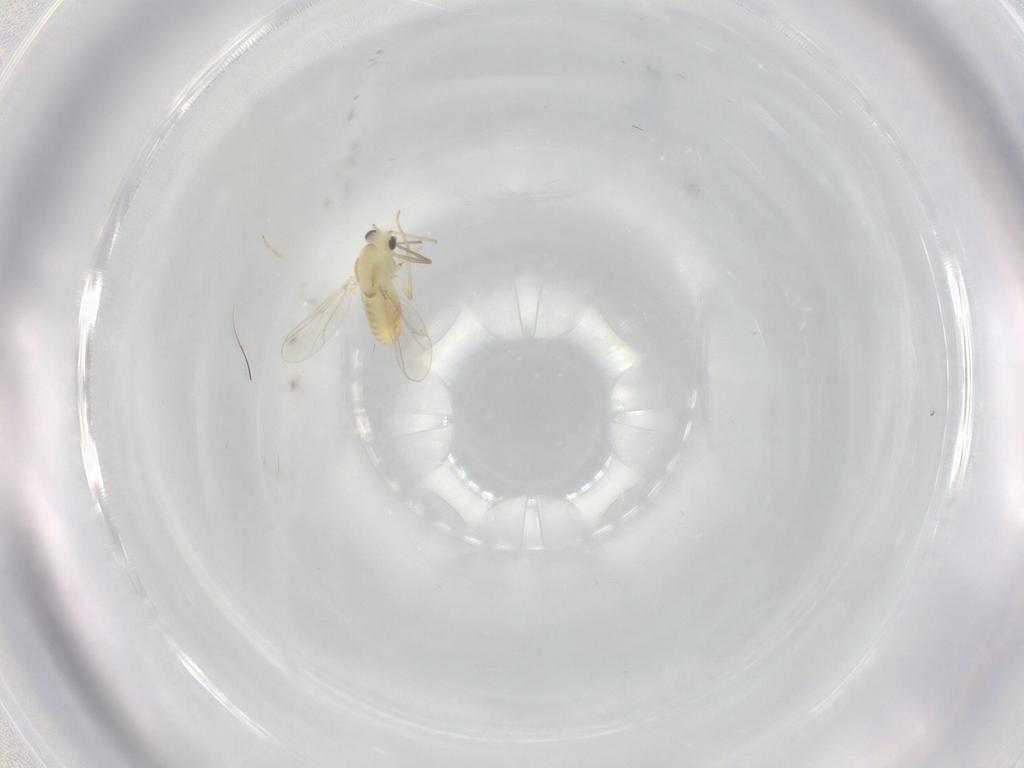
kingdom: Animalia
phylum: Arthropoda
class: Insecta
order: Diptera
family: Chironomidae
